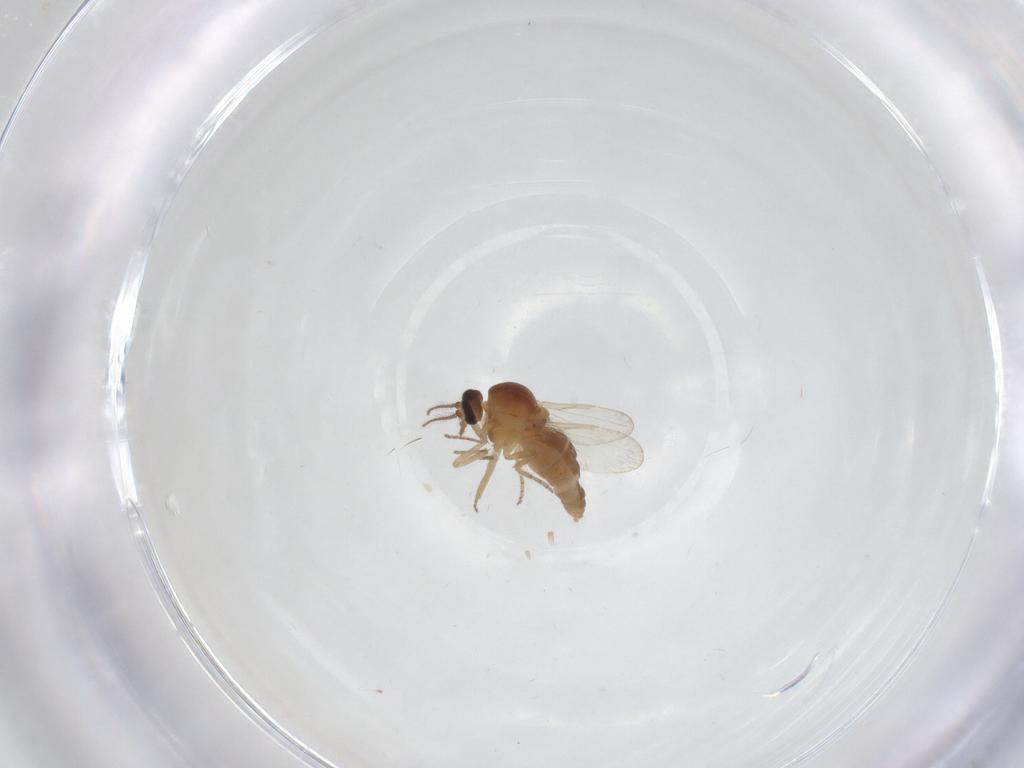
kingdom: Animalia
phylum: Arthropoda
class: Insecta
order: Diptera
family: Ceratopogonidae
